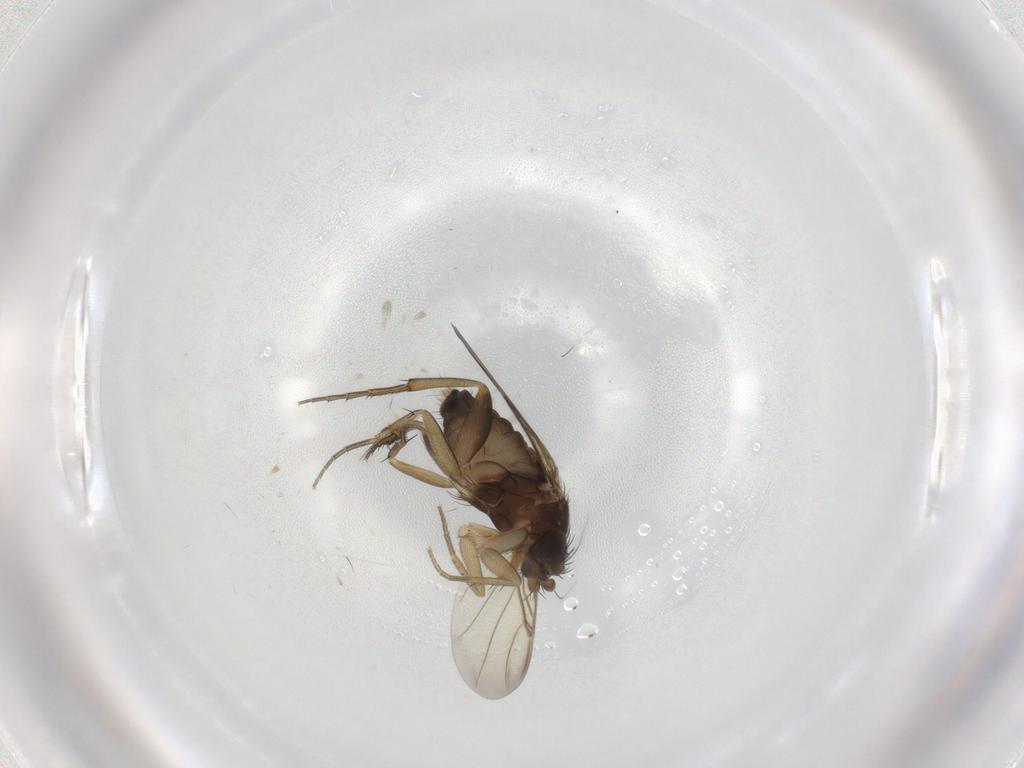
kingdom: Animalia
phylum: Arthropoda
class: Insecta
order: Diptera
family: Phoridae
